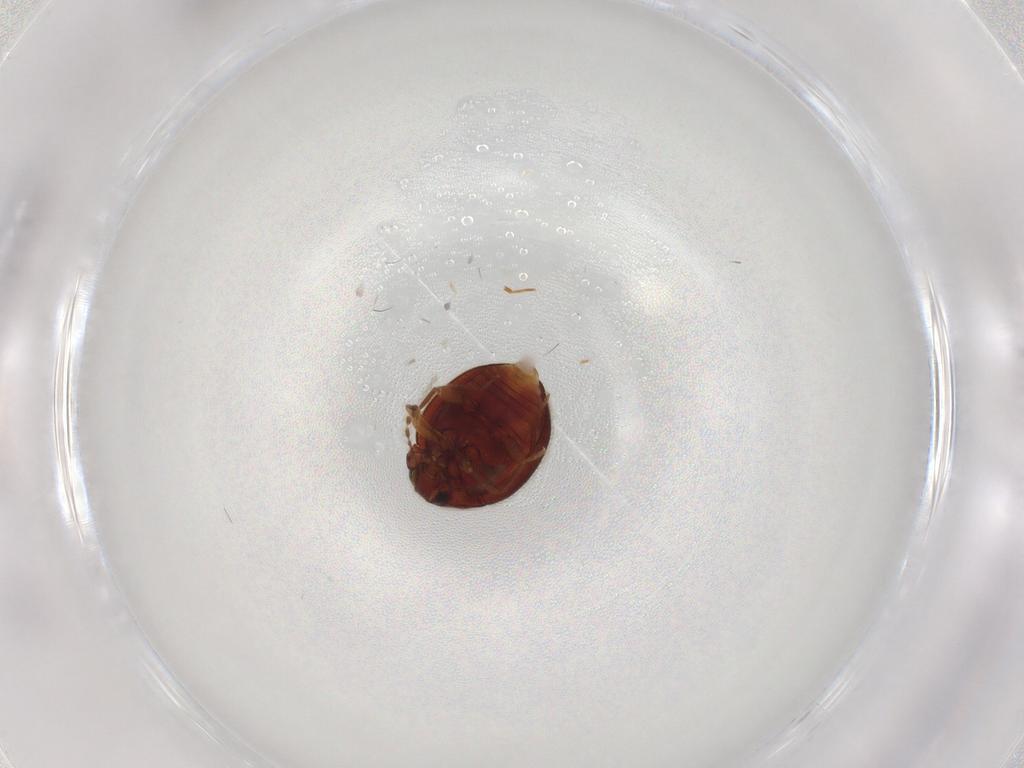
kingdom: Animalia
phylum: Arthropoda
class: Insecta
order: Coleoptera
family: Anamorphidae
